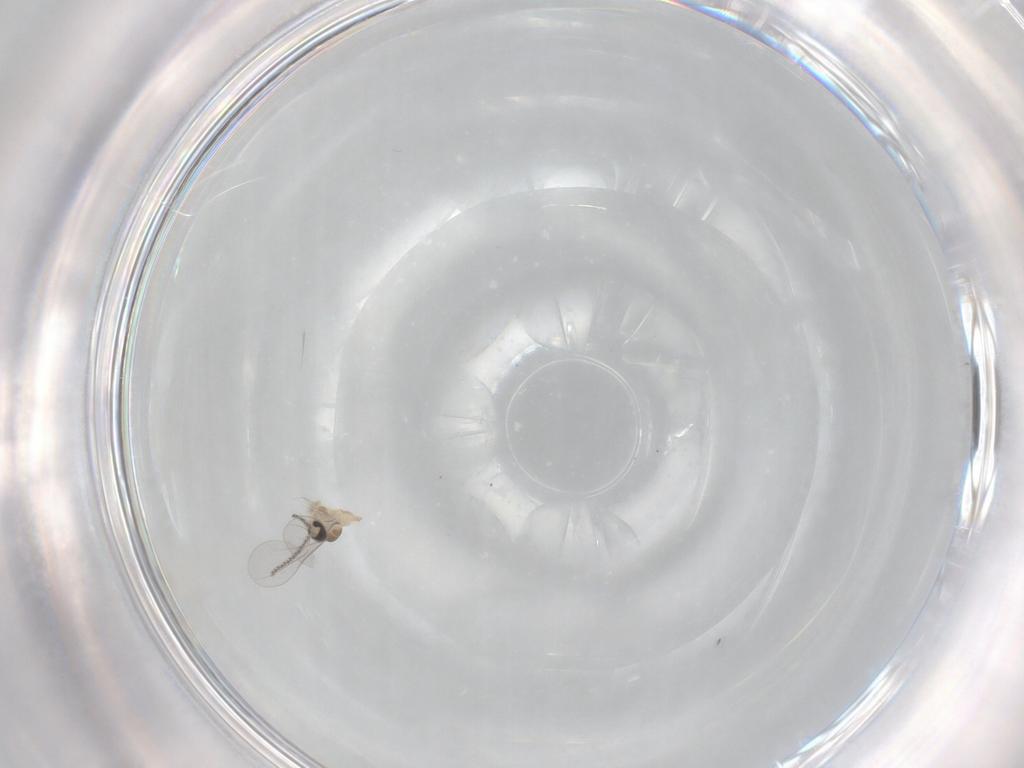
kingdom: Animalia
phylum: Arthropoda
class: Insecta
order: Diptera
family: Cecidomyiidae
